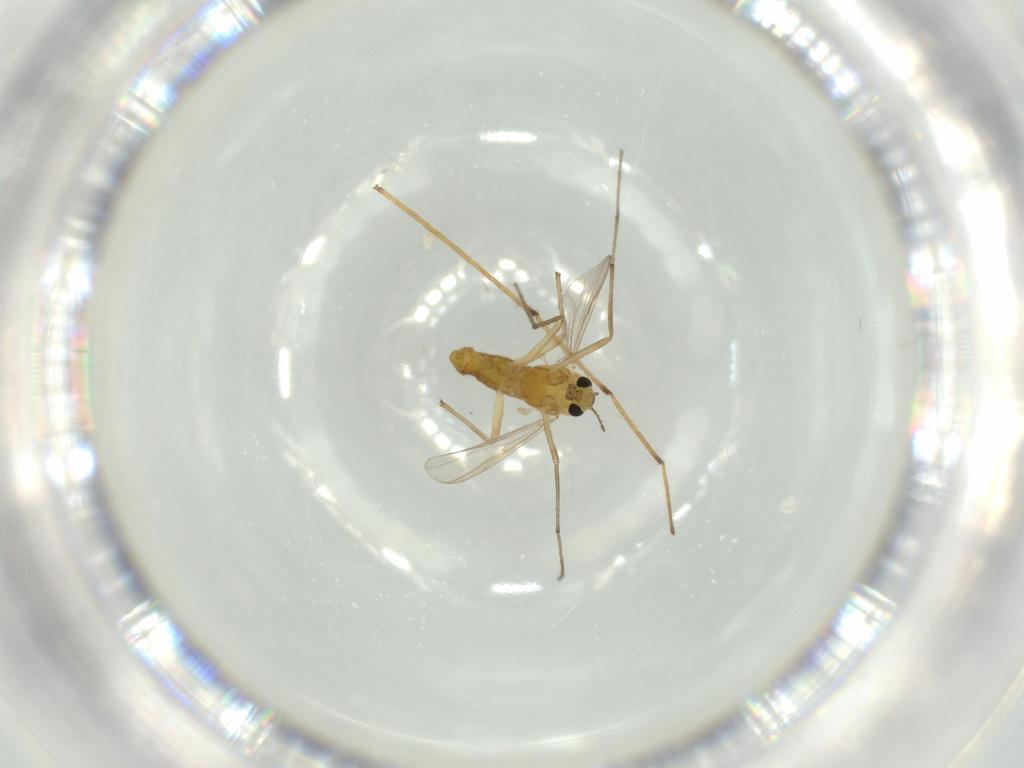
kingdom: Animalia
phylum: Arthropoda
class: Insecta
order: Diptera
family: Chironomidae
